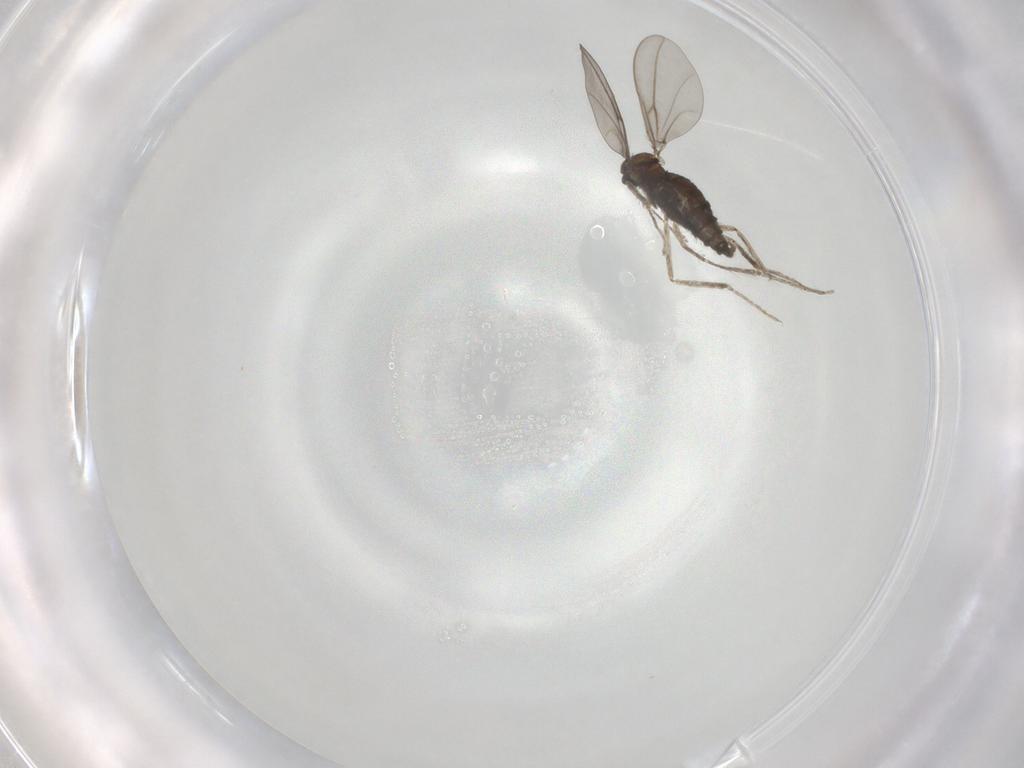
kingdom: Animalia
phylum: Arthropoda
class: Insecta
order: Diptera
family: Cecidomyiidae
